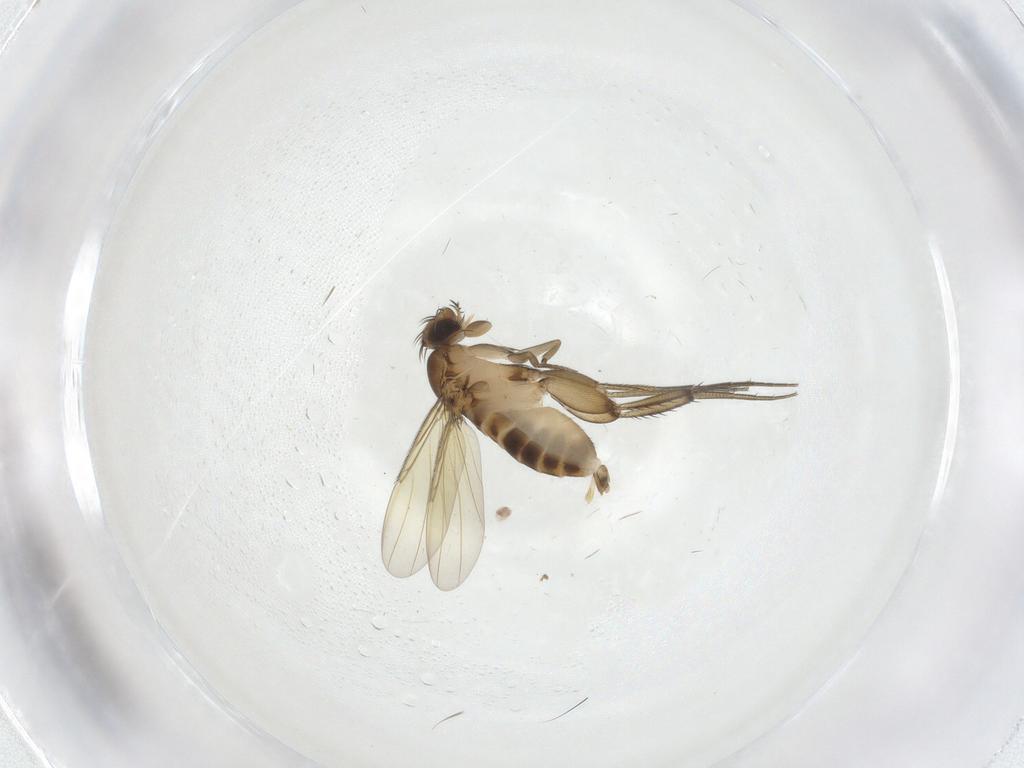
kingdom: Animalia
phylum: Arthropoda
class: Insecta
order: Diptera
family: Phoridae
